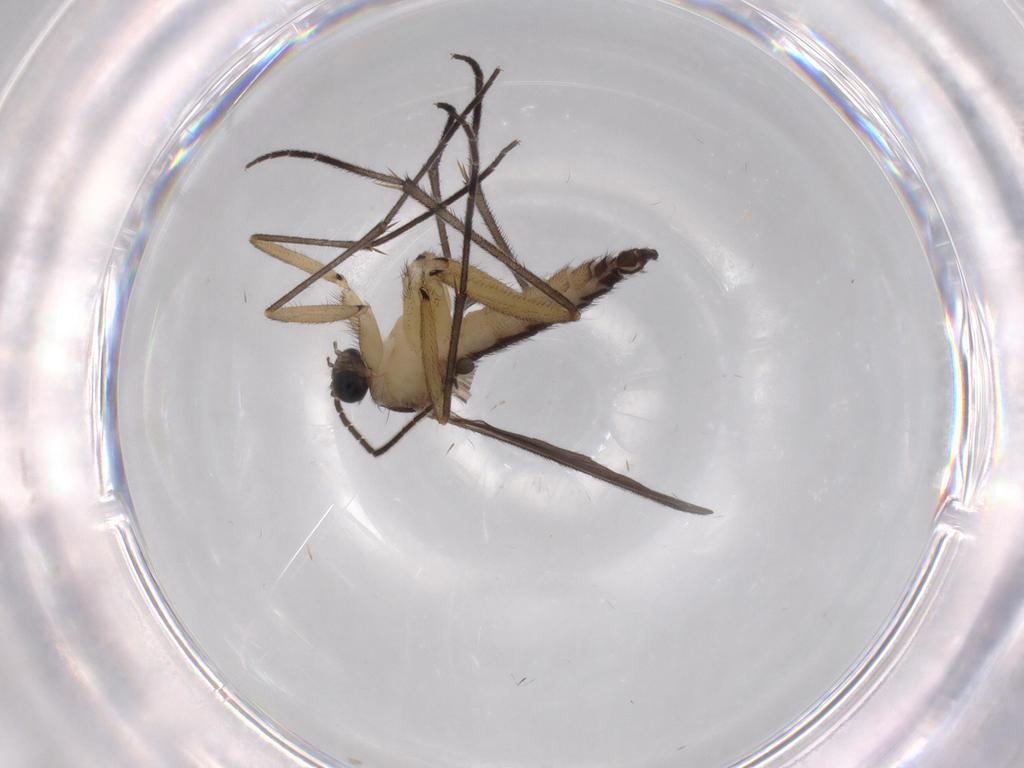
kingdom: Animalia
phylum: Arthropoda
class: Insecta
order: Diptera
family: Sciaridae
